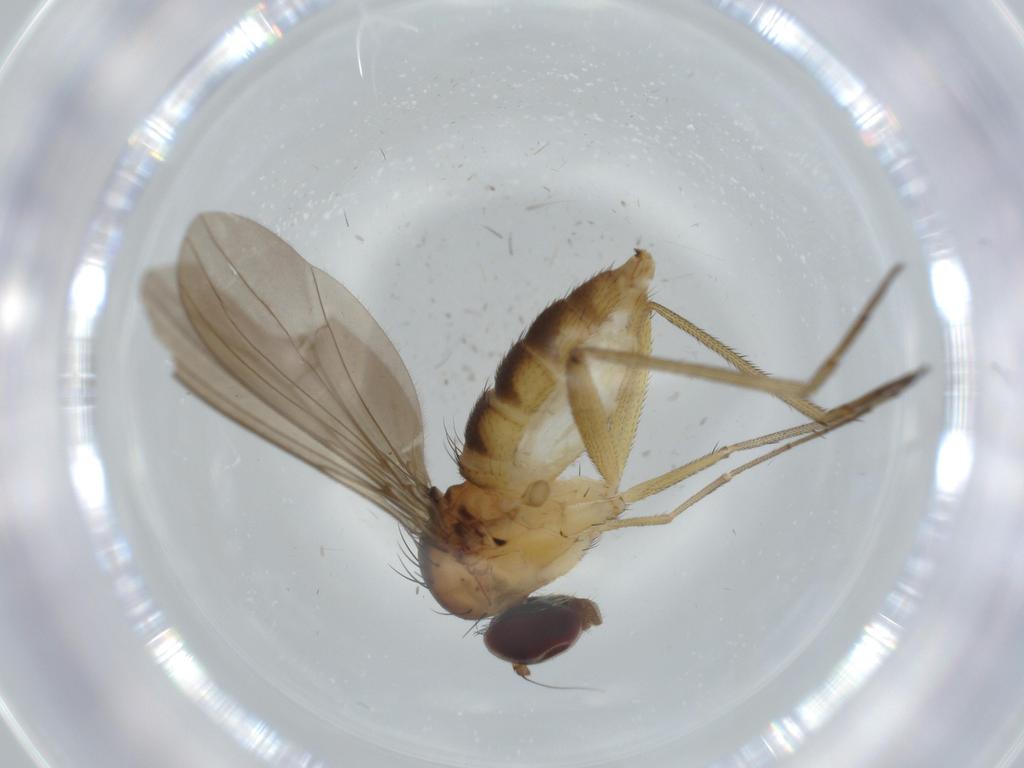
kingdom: Animalia
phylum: Arthropoda
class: Insecta
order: Diptera
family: Pipunculidae
